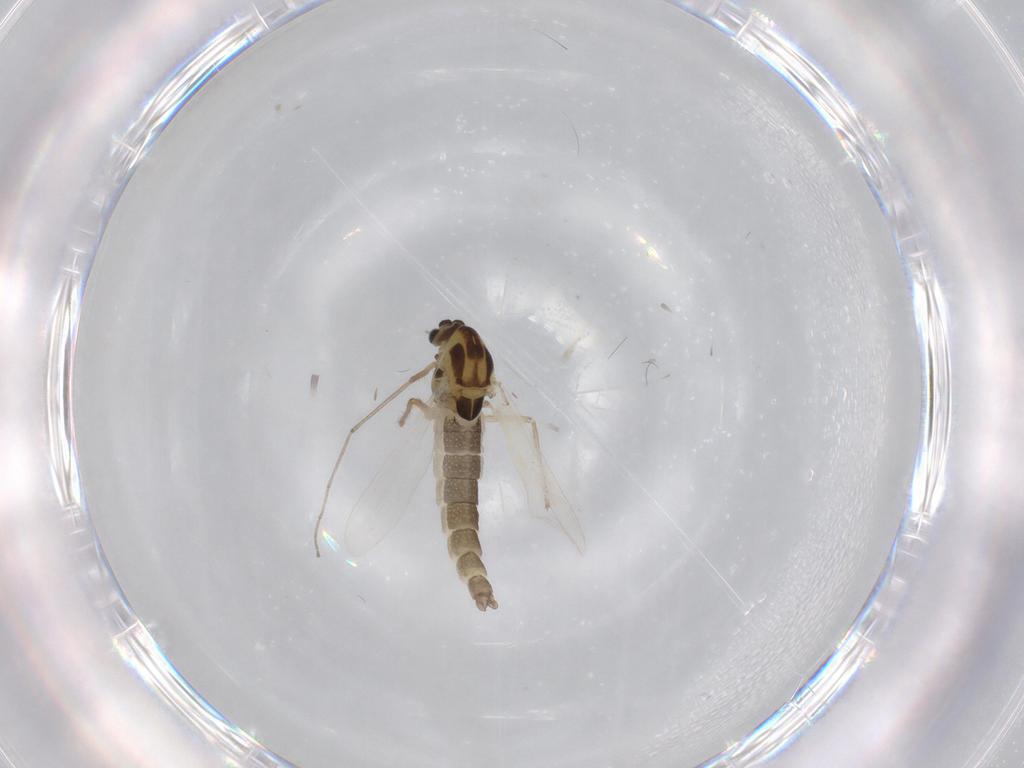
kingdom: Animalia
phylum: Arthropoda
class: Insecta
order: Diptera
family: Chironomidae
